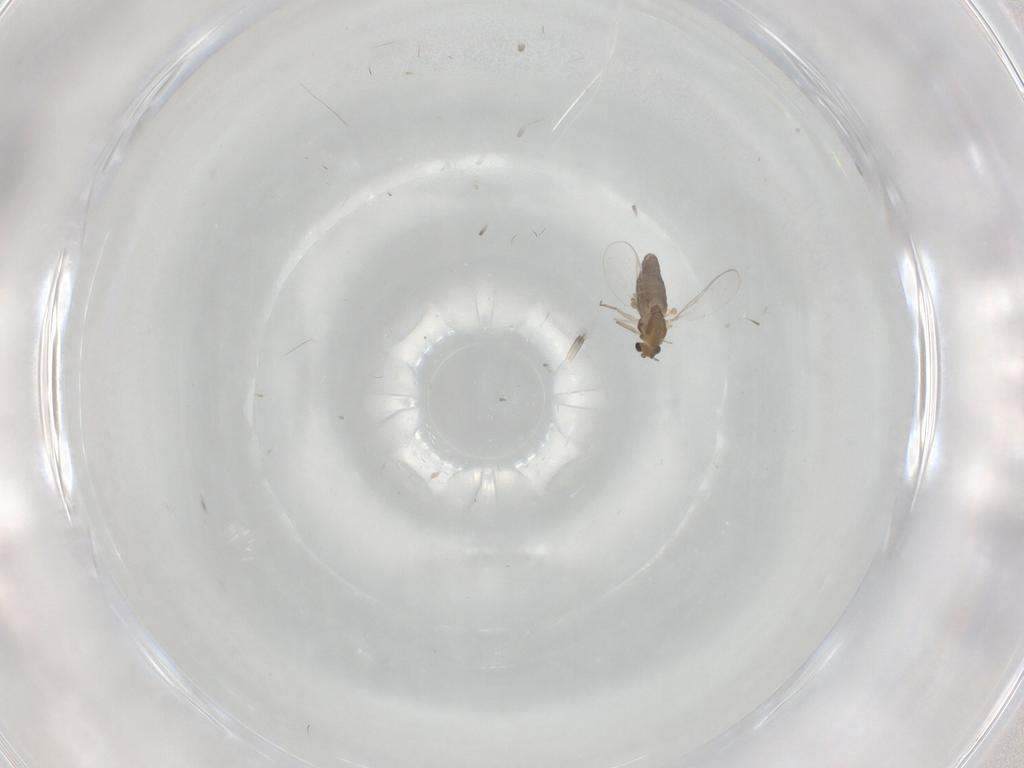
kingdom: Animalia
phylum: Arthropoda
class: Insecta
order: Diptera
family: Chironomidae
